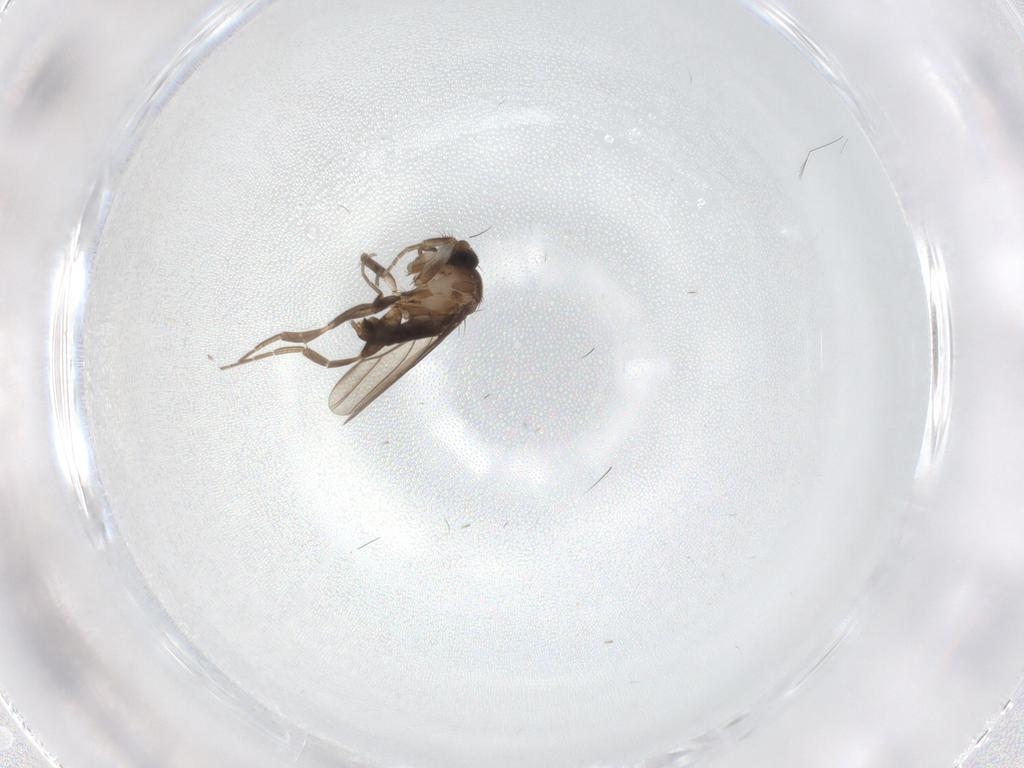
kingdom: Animalia
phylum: Arthropoda
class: Insecta
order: Diptera
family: Phoridae
